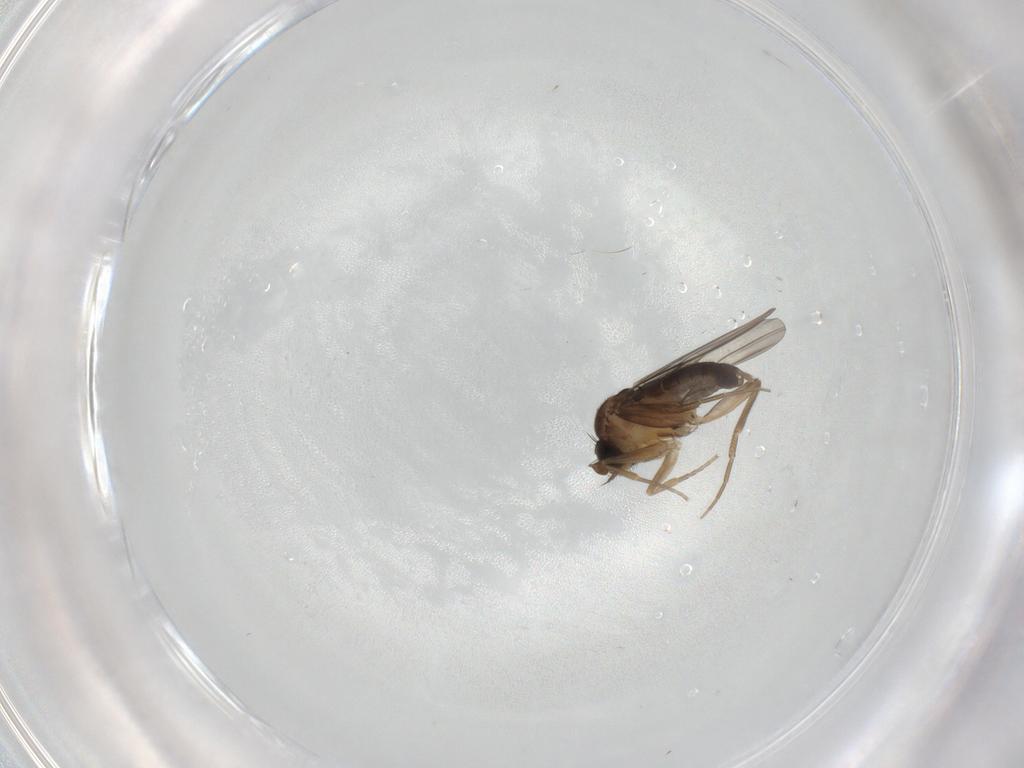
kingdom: Animalia
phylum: Arthropoda
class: Insecta
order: Diptera
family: Phoridae
